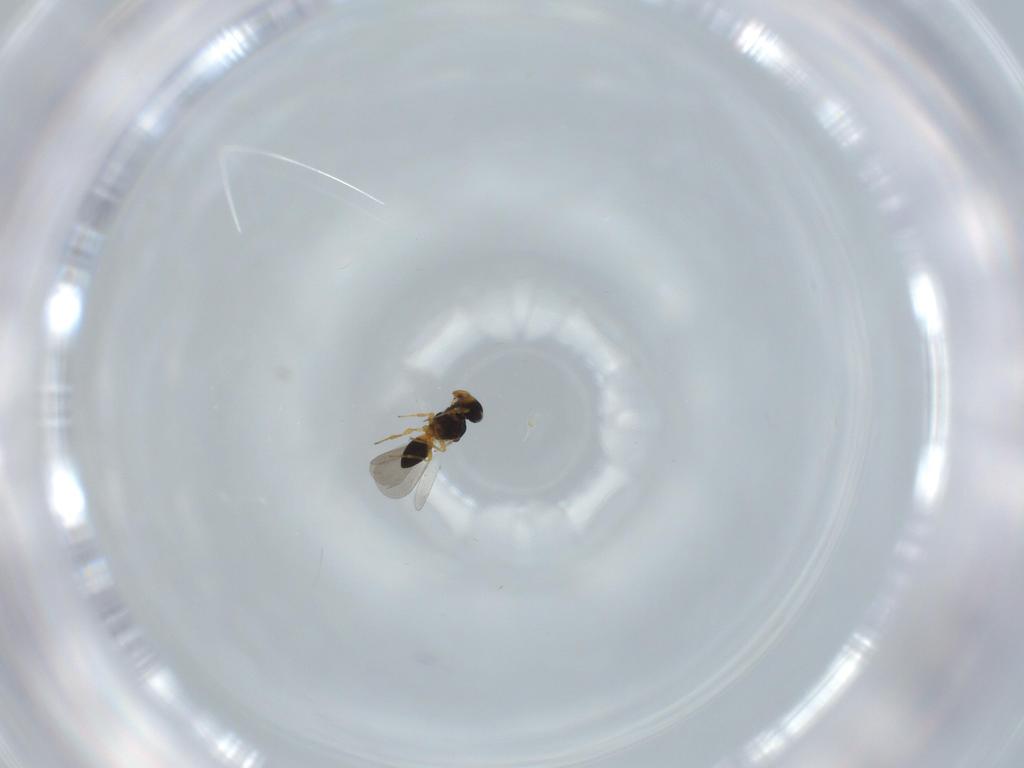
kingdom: Animalia
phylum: Arthropoda
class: Insecta
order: Hymenoptera
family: Platygastridae
